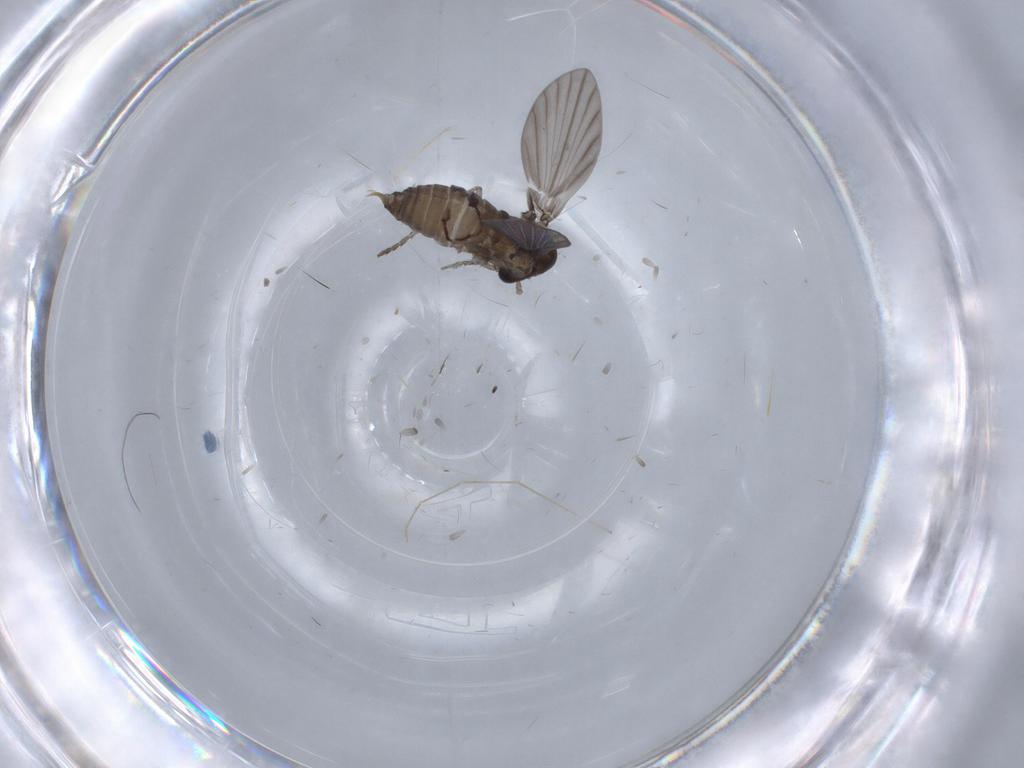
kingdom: Animalia
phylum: Arthropoda
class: Insecta
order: Diptera
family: Psychodidae
